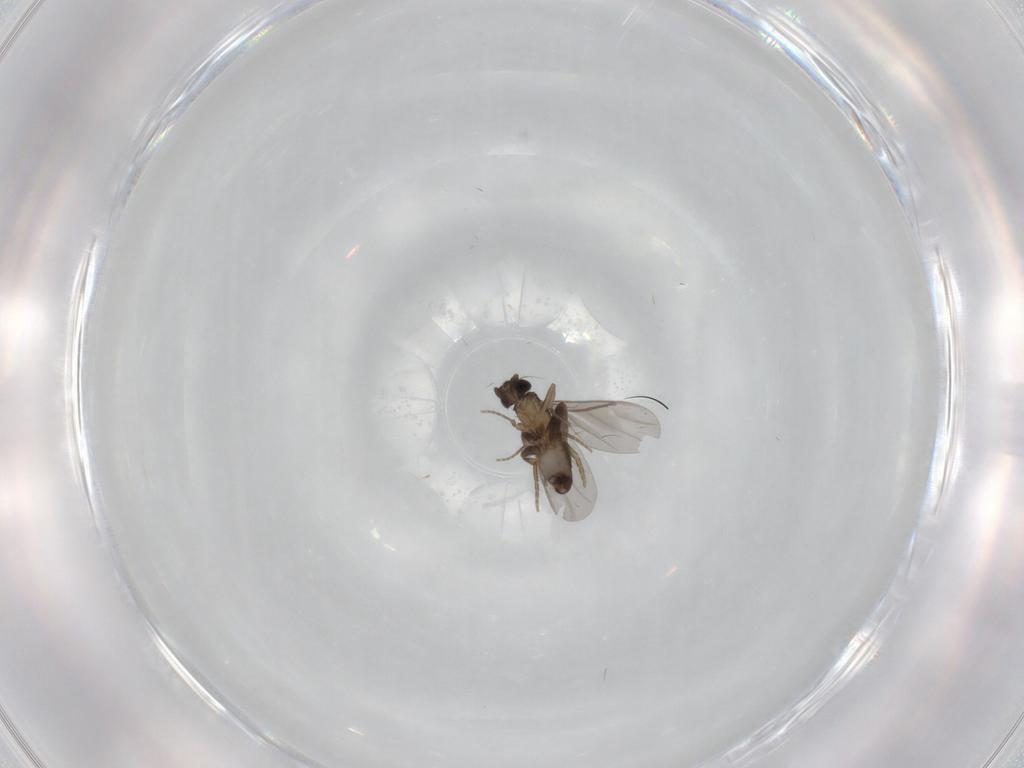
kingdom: Animalia
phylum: Arthropoda
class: Insecta
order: Diptera
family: Limoniidae
